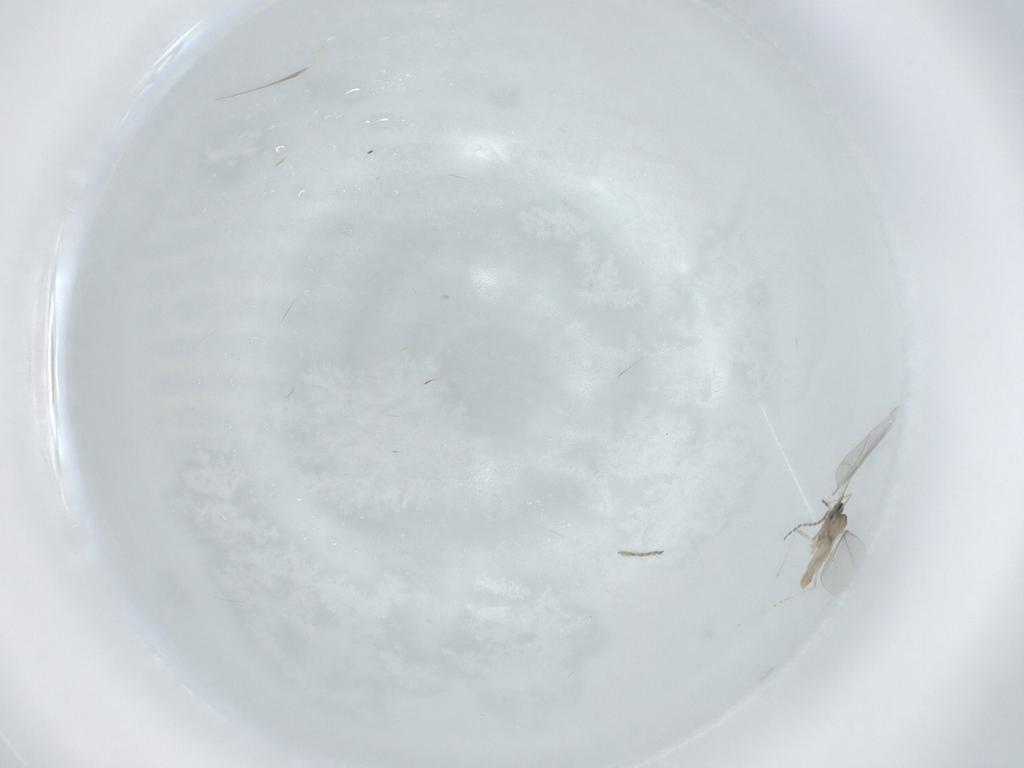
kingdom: Animalia
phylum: Arthropoda
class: Insecta
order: Diptera
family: Cecidomyiidae
